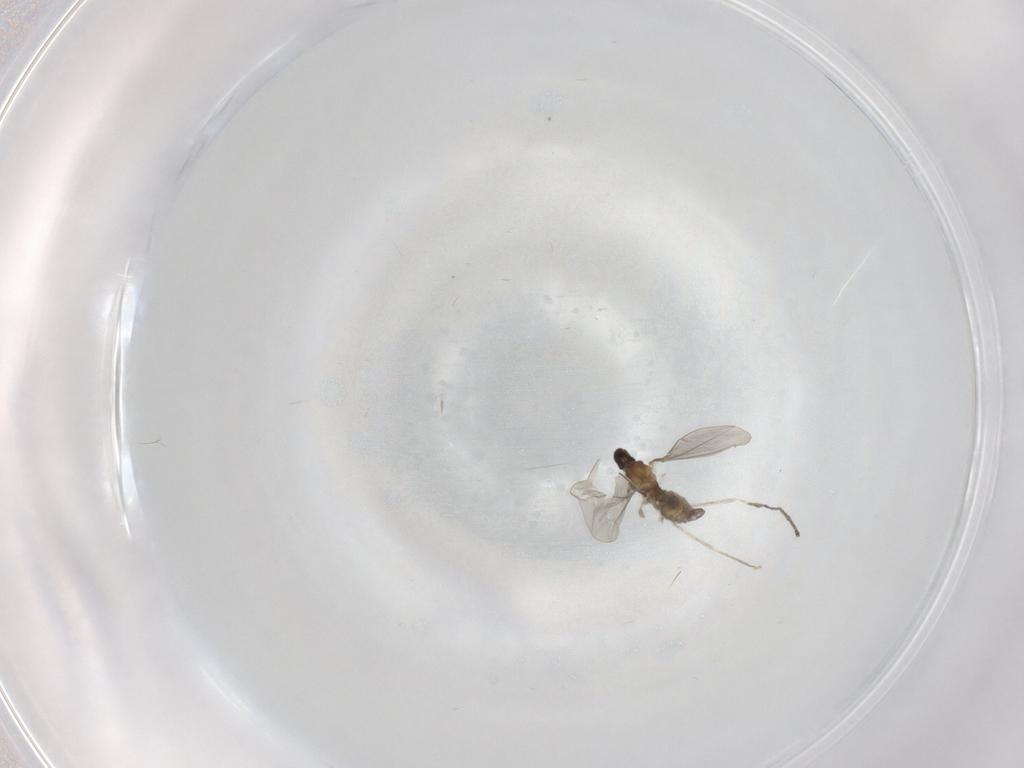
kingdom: Animalia
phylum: Arthropoda
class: Insecta
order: Diptera
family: Cecidomyiidae
